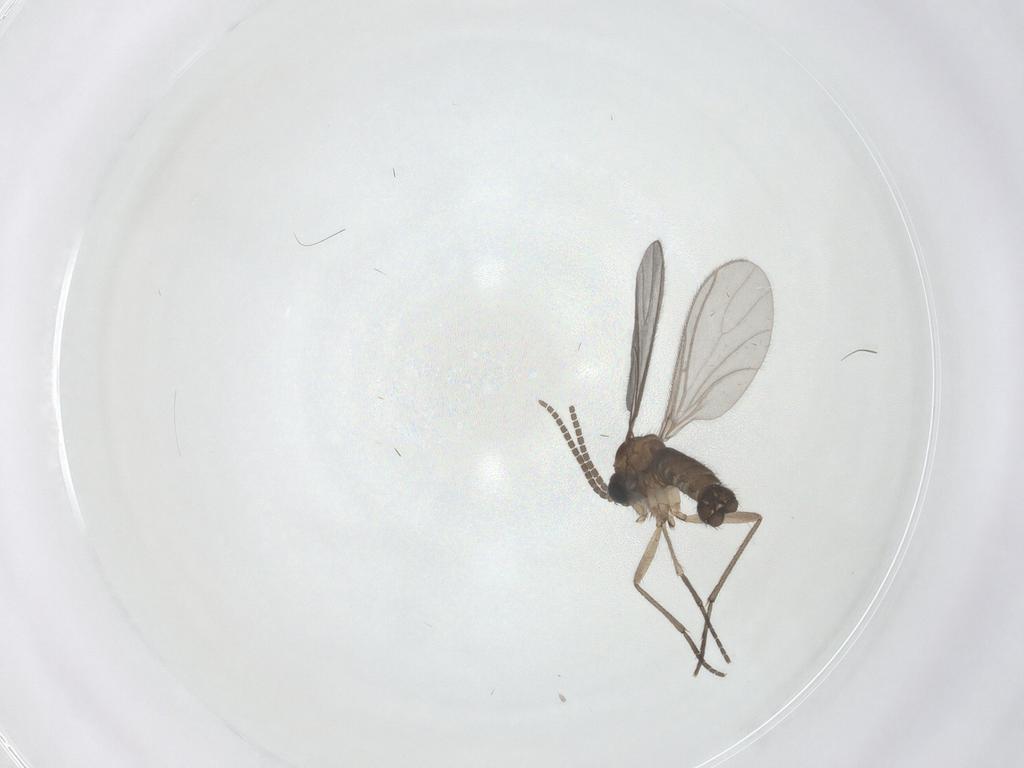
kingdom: Animalia
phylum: Arthropoda
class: Insecta
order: Diptera
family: Sciaridae
